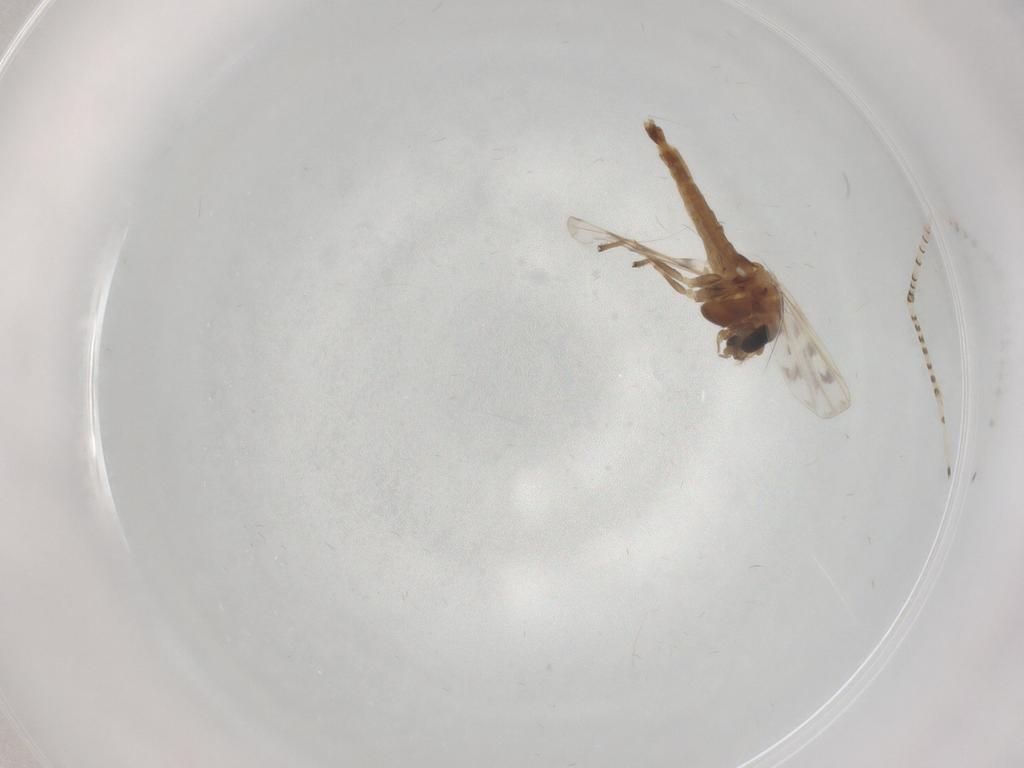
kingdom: Animalia
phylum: Arthropoda
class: Insecta
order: Diptera
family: Chironomidae
